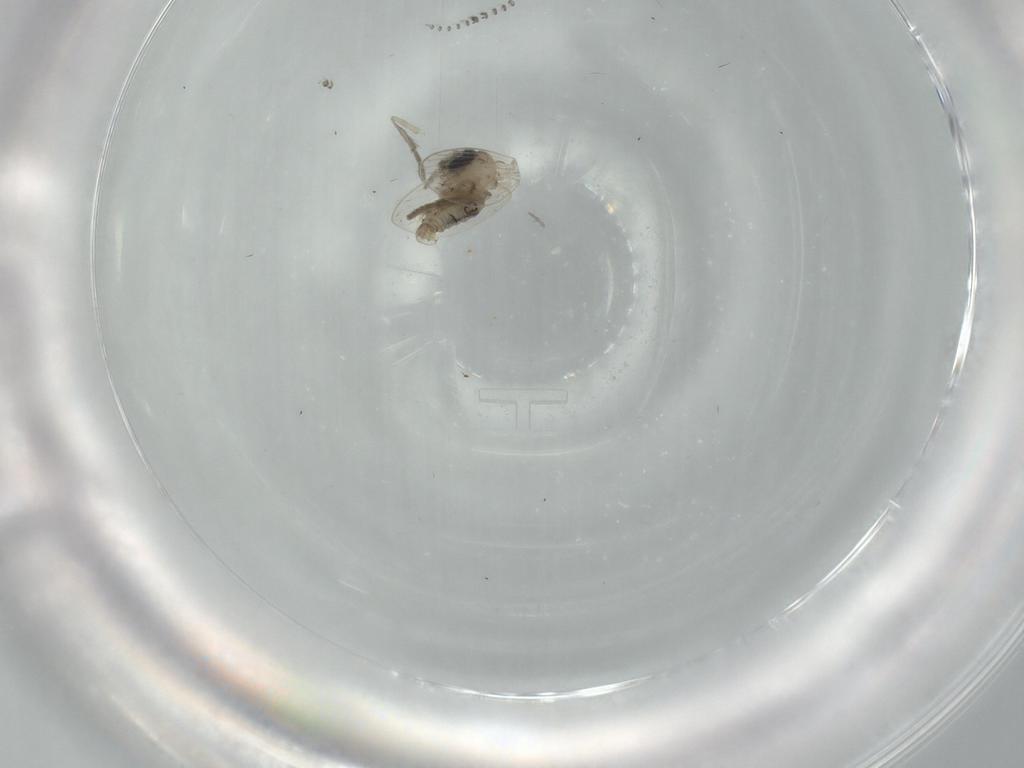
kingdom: Animalia
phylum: Arthropoda
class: Insecta
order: Diptera
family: Psychodidae
